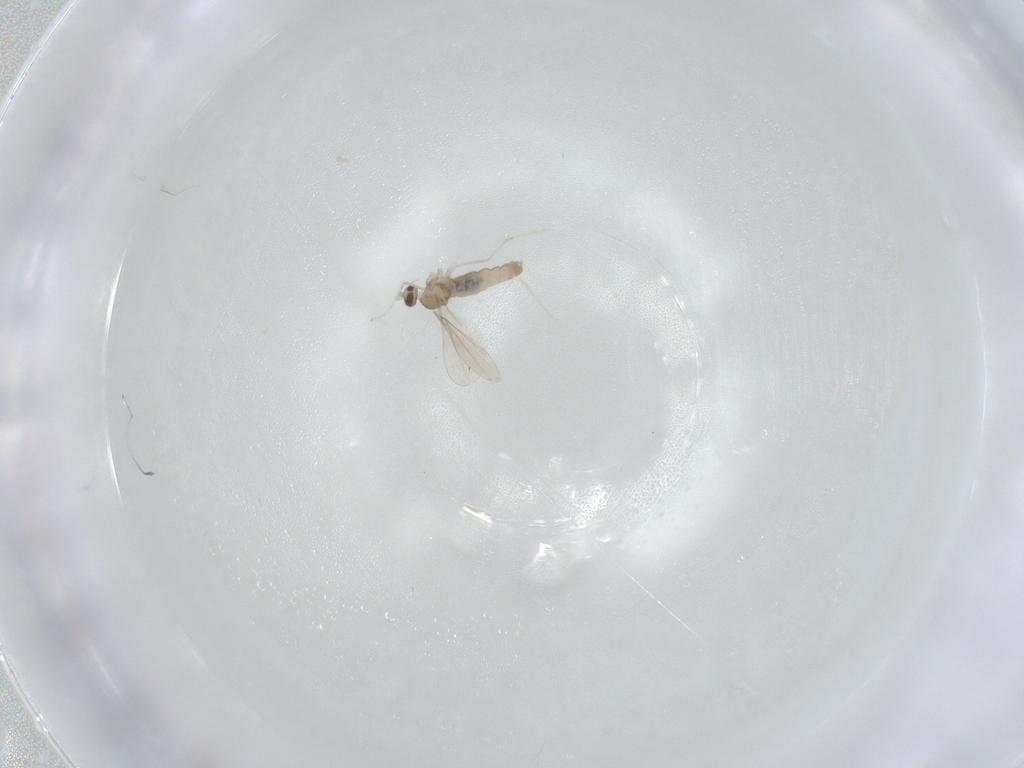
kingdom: Animalia
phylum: Arthropoda
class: Insecta
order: Diptera
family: Cecidomyiidae
